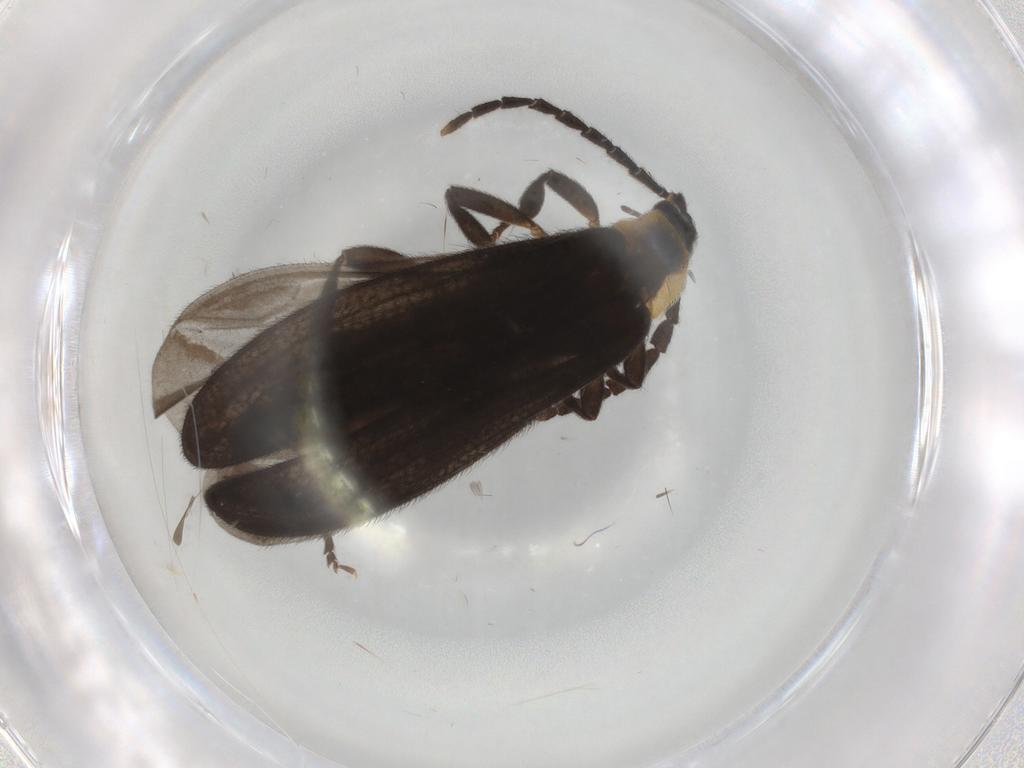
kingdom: Animalia
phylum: Arthropoda
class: Insecta
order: Coleoptera
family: Lycidae
